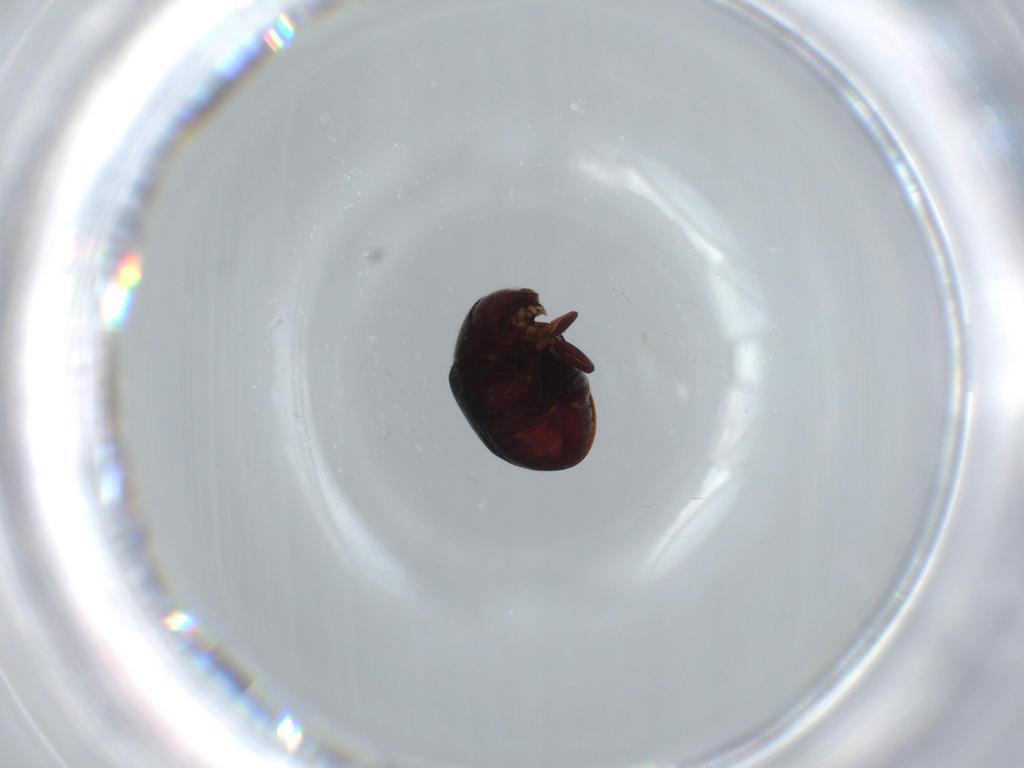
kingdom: Animalia
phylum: Arthropoda
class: Insecta
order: Coleoptera
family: Ptinidae
